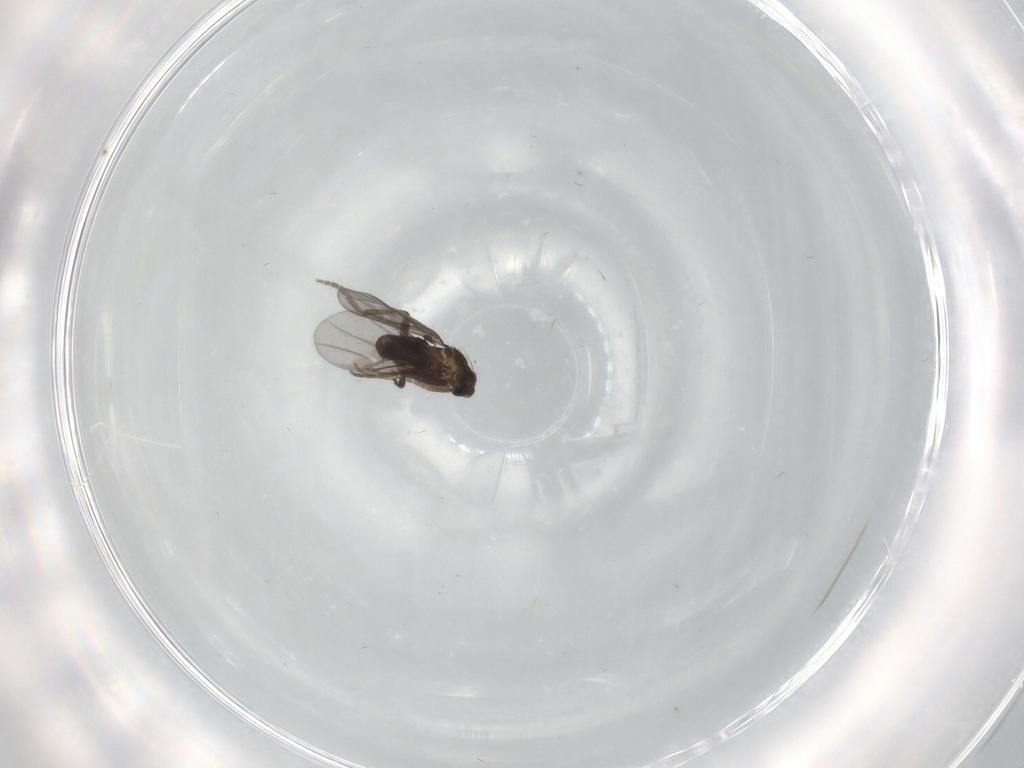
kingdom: Animalia
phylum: Arthropoda
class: Insecta
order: Diptera
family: Sciaridae
